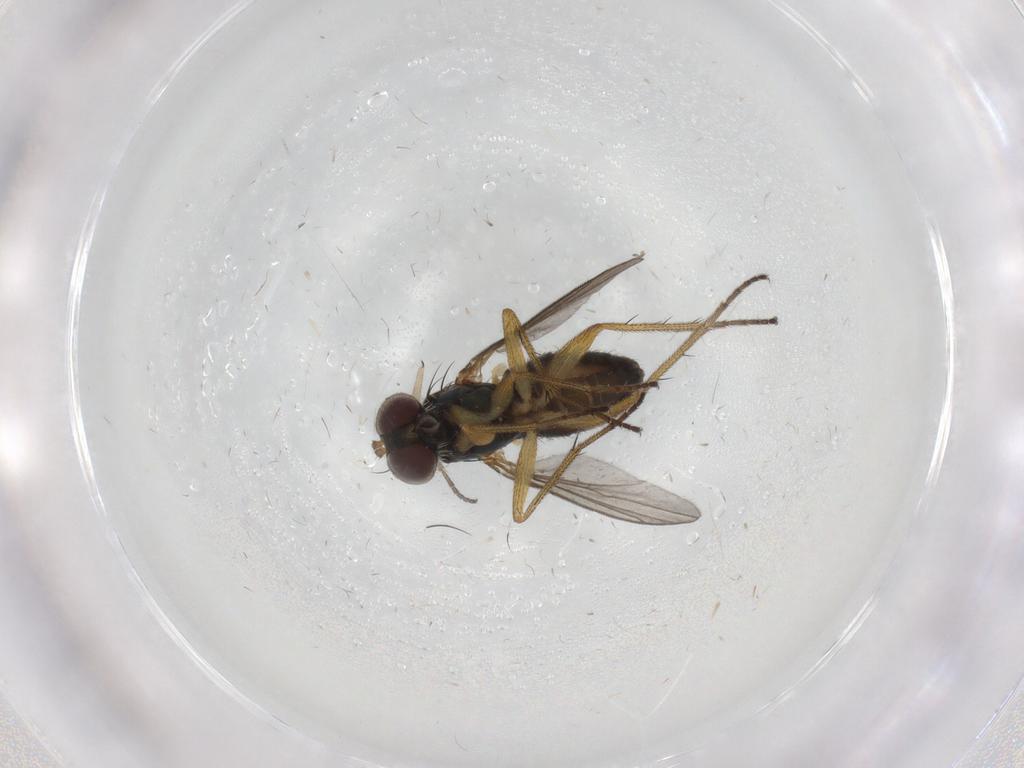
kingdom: Animalia
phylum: Arthropoda
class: Insecta
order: Diptera
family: Dolichopodidae
